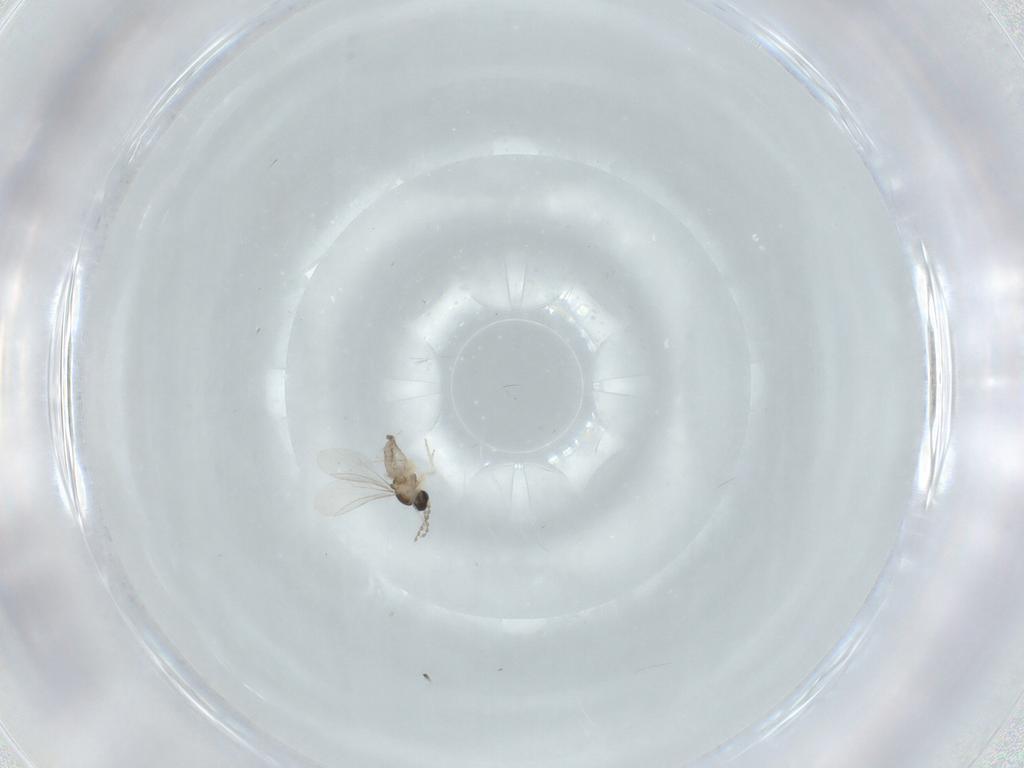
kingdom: Animalia
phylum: Arthropoda
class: Insecta
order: Diptera
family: Cecidomyiidae
